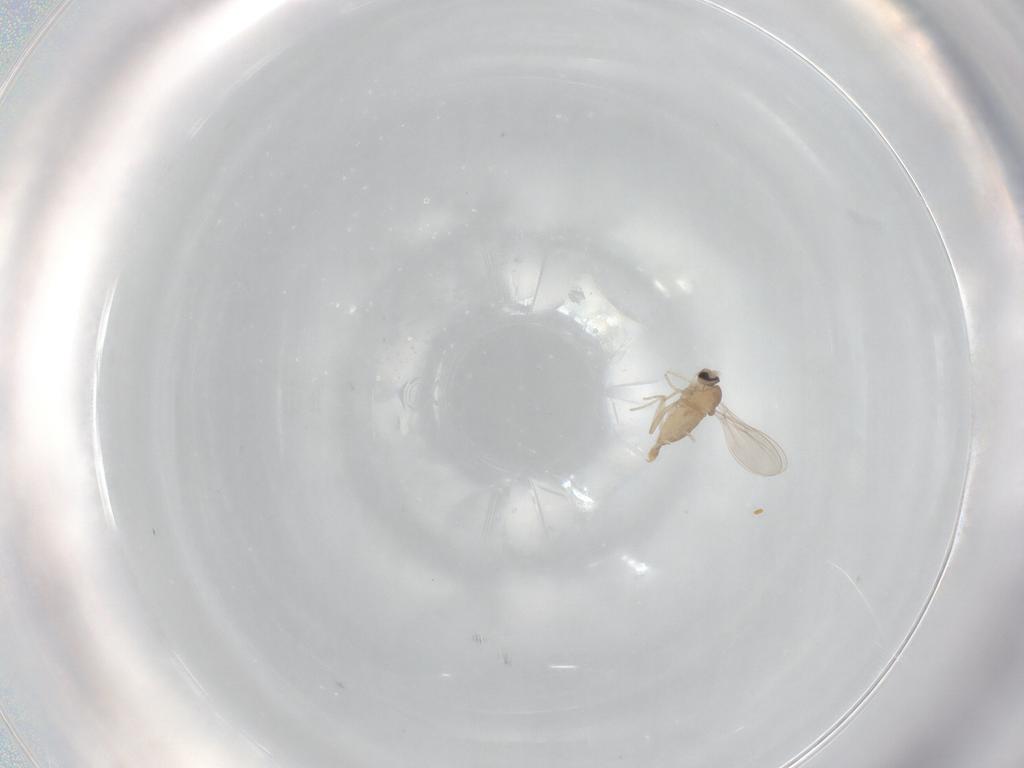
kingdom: Animalia
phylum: Arthropoda
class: Insecta
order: Diptera
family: Cecidomyiidae
